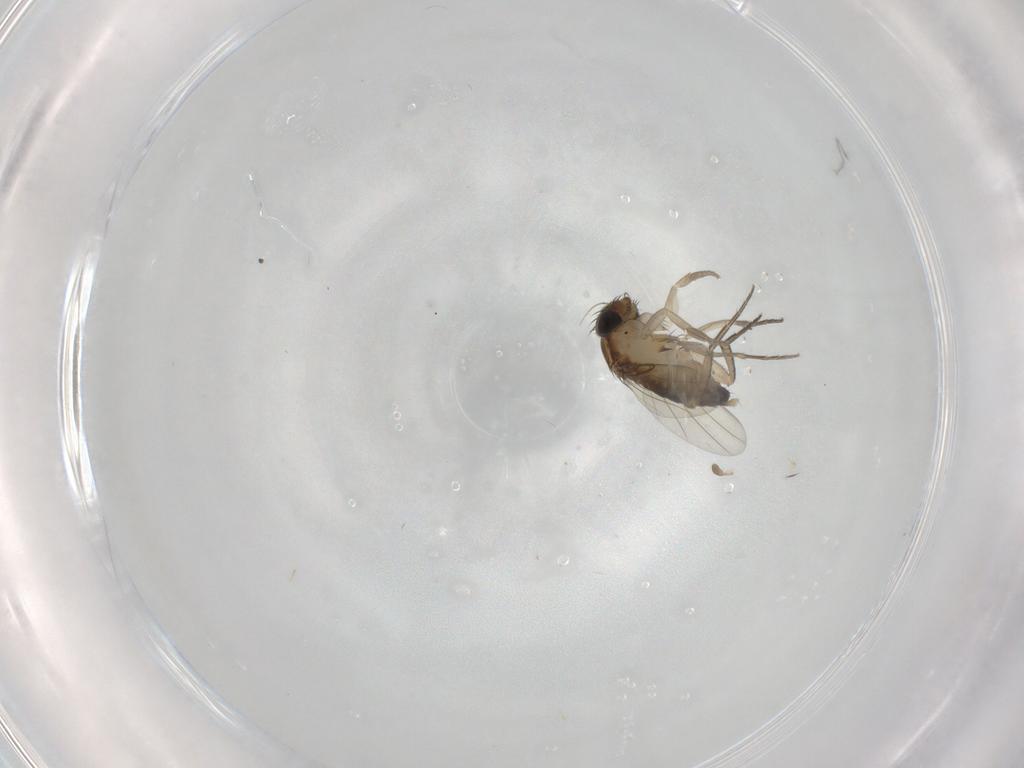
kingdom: Animalia
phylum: Arthropoda
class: Insecta
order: Diptera
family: Phoridae
